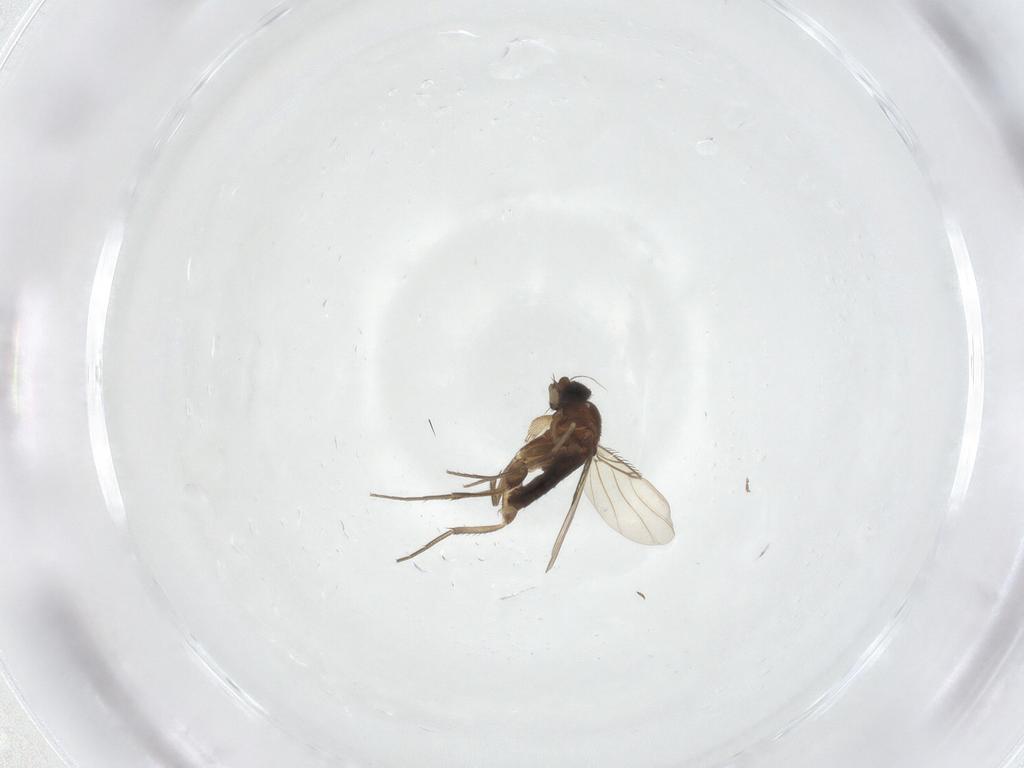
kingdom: Animalia
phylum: Arthropoda
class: Insecta
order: Diptera
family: Phoridae
